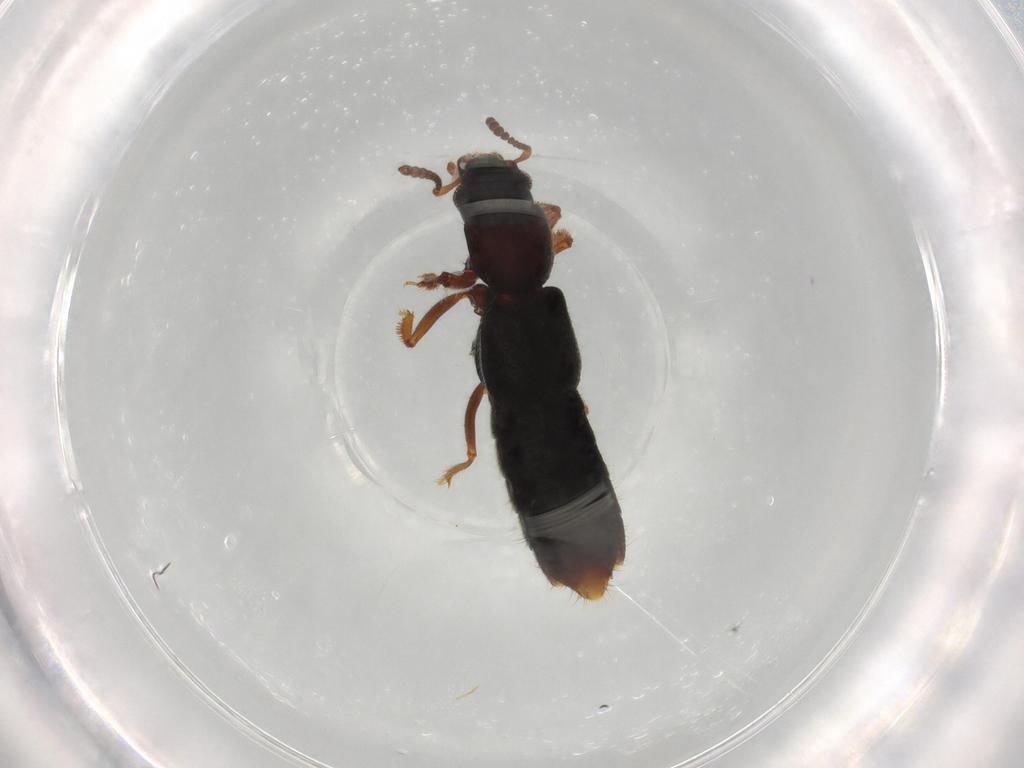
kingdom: Animalia
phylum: Arthropoda
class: Insecta
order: Coleoptera
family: Staphylinidae
